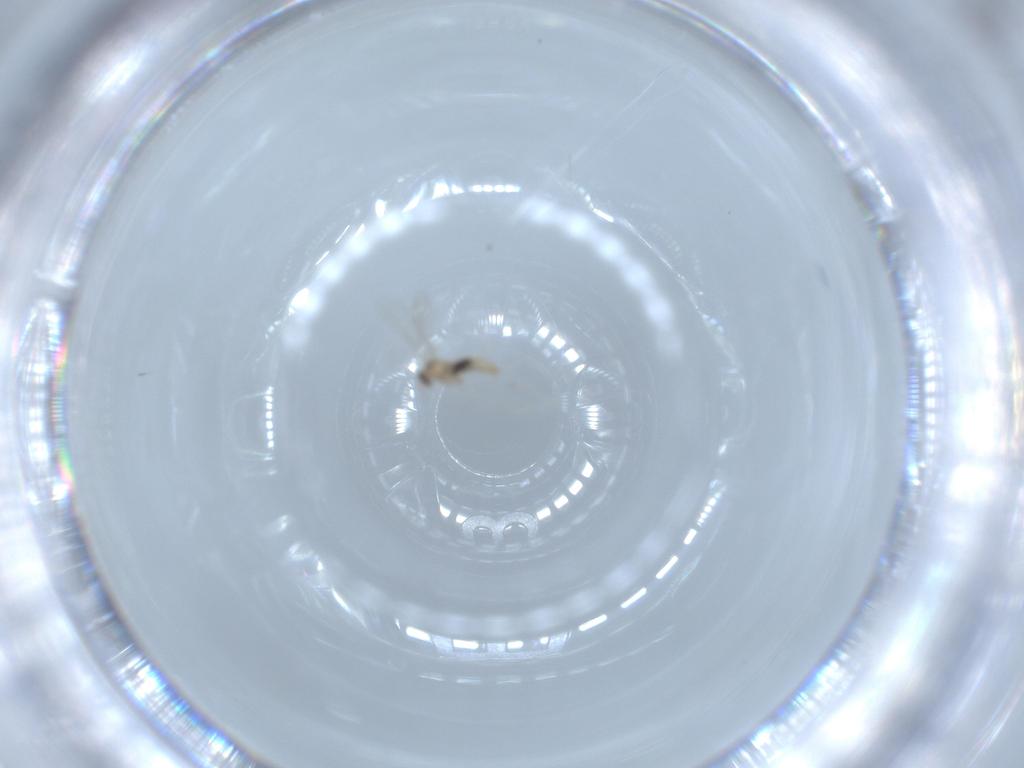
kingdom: Animalia
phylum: Arthropoda
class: Insecta
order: Diptera
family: Cecidomyiidae
